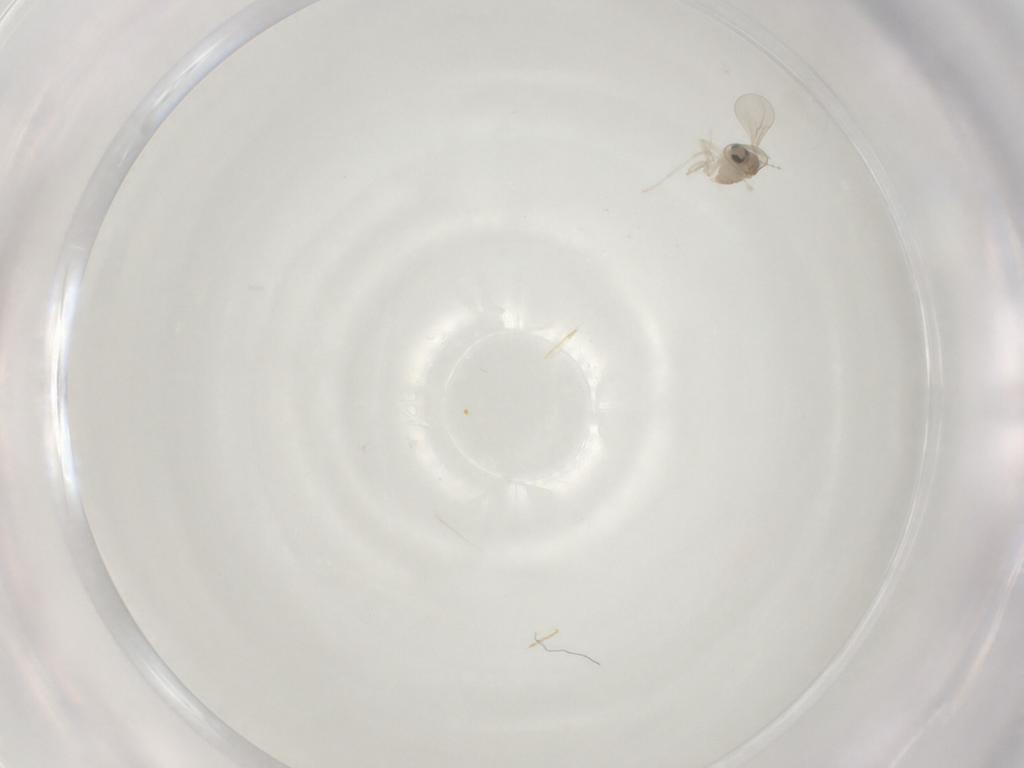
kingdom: Animalia
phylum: Arthropoda
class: Insecta
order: Diptera
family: Cecidomyiidae
